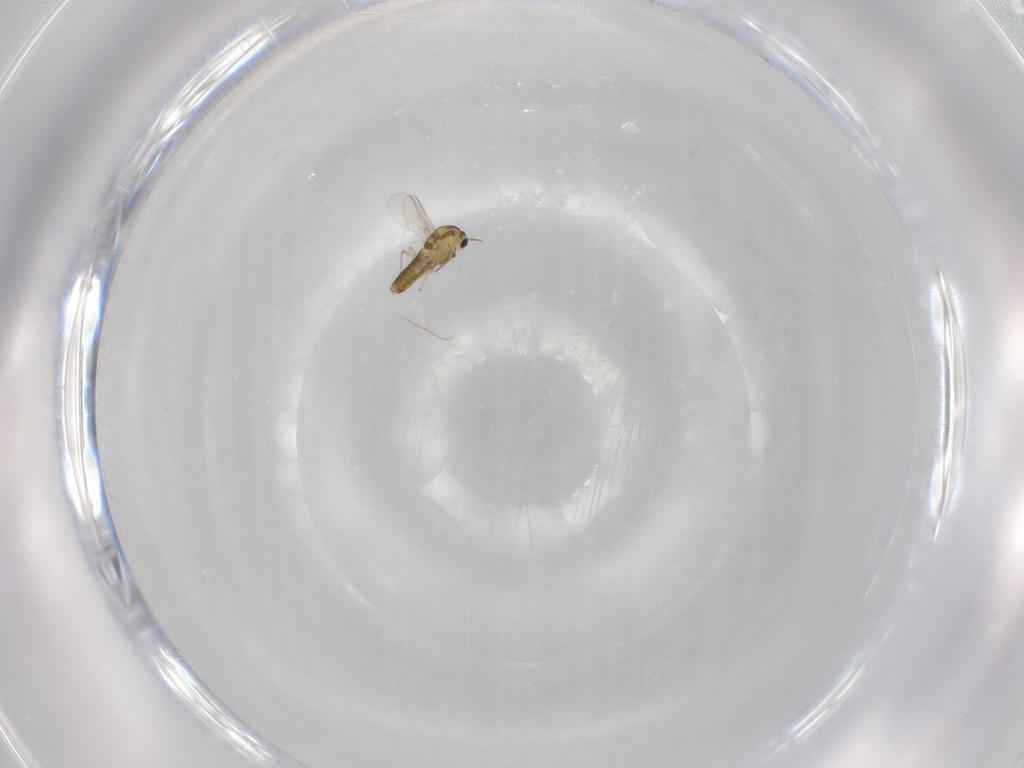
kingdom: Animalia
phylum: Arthropoda
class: Insecta
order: Diptera
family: Chironomidae
